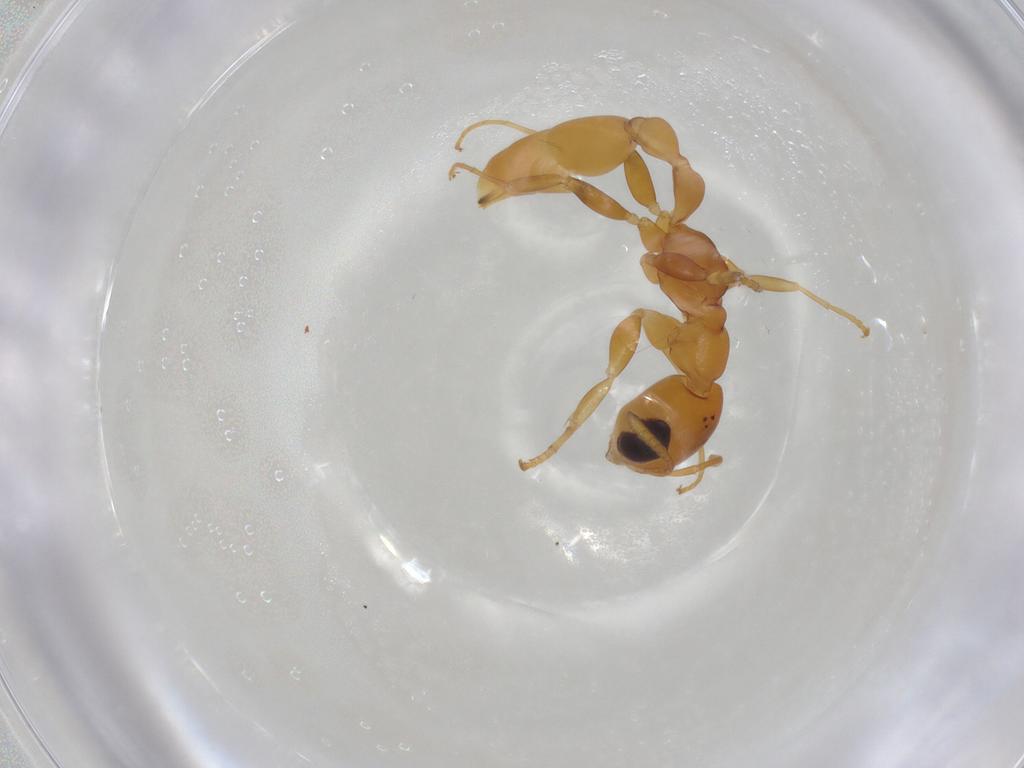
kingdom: Animalia
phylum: Arthropoda
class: Insecta
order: Hymenoptera
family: Formicidae
